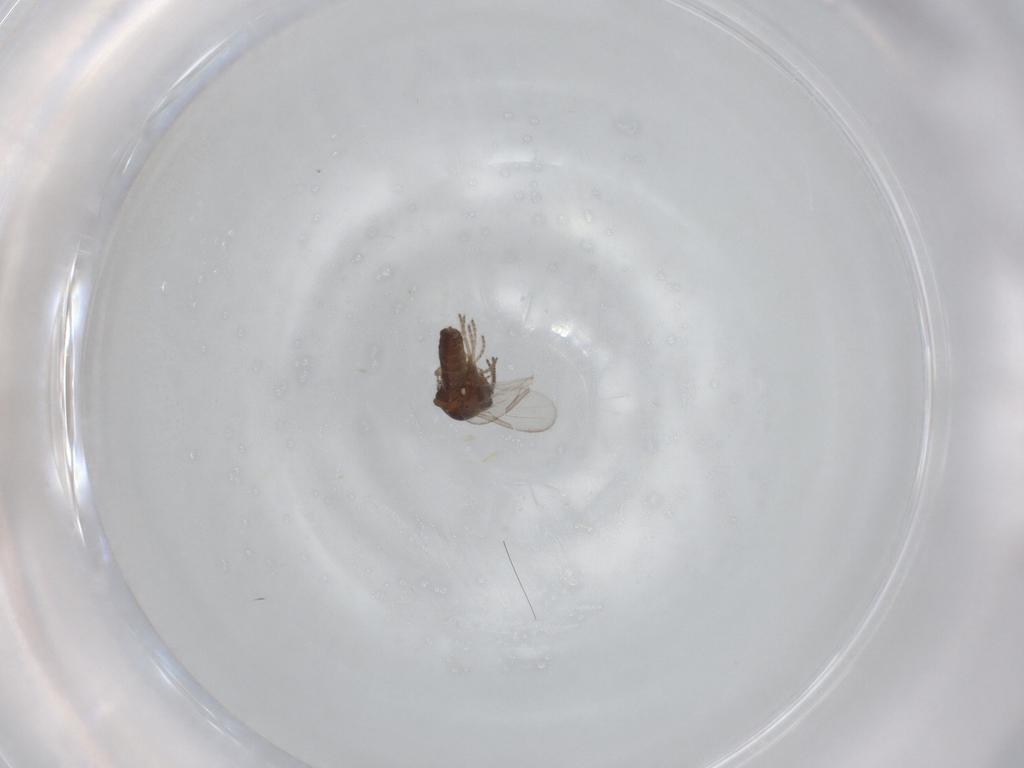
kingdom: Animalia
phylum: Arthropoda
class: Insecta
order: Diptera
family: Ceratopogonidae
